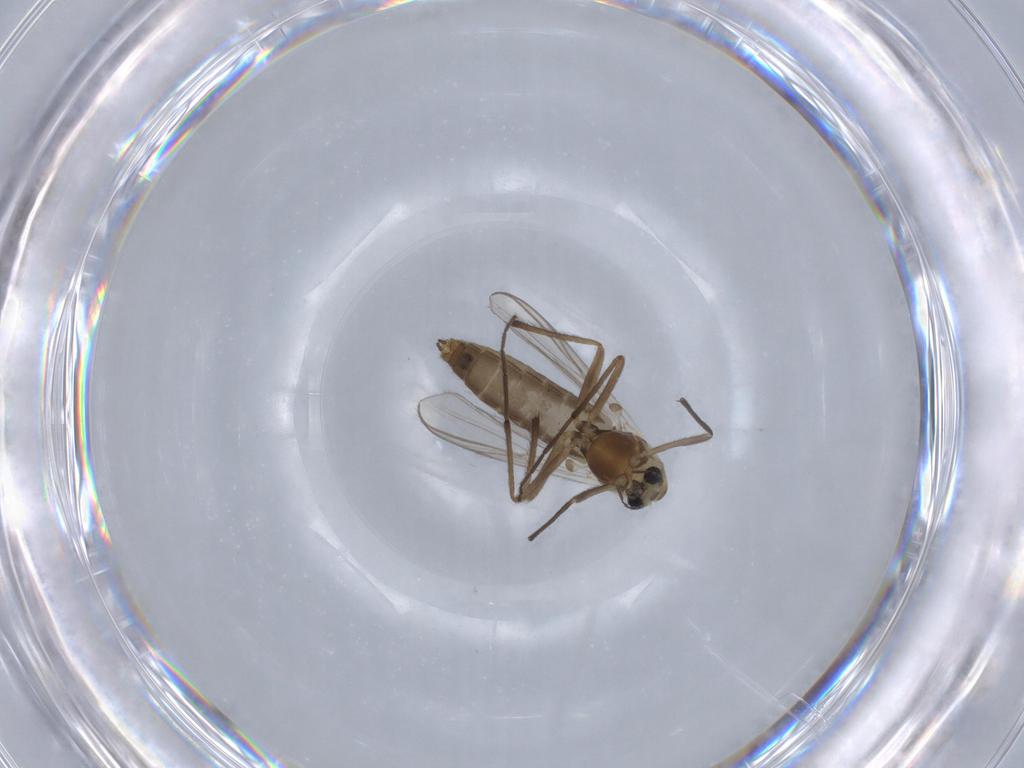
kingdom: Animalia
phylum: Arthropoda
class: Insecta
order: Diptera
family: Chironomidae
